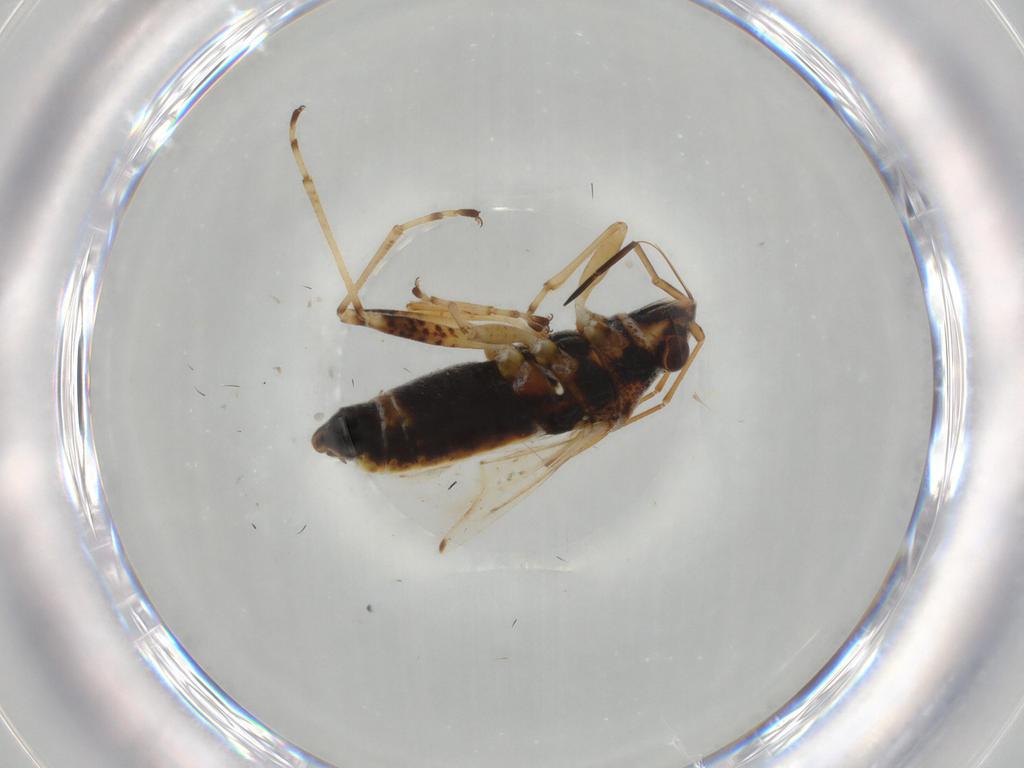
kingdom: Animalia
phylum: Arthropoda
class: Insecta
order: Hemiptera
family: Lygaeidae
